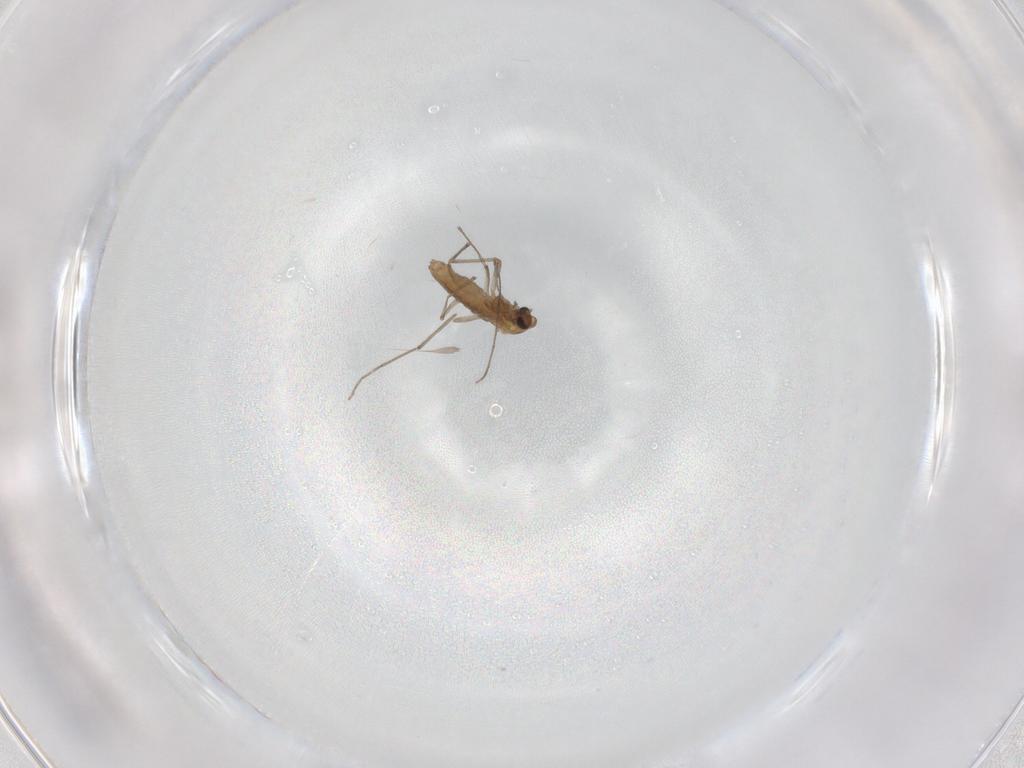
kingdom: Animalia
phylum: Arthropoda
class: Insecta
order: Diptera
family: Chironomidae
